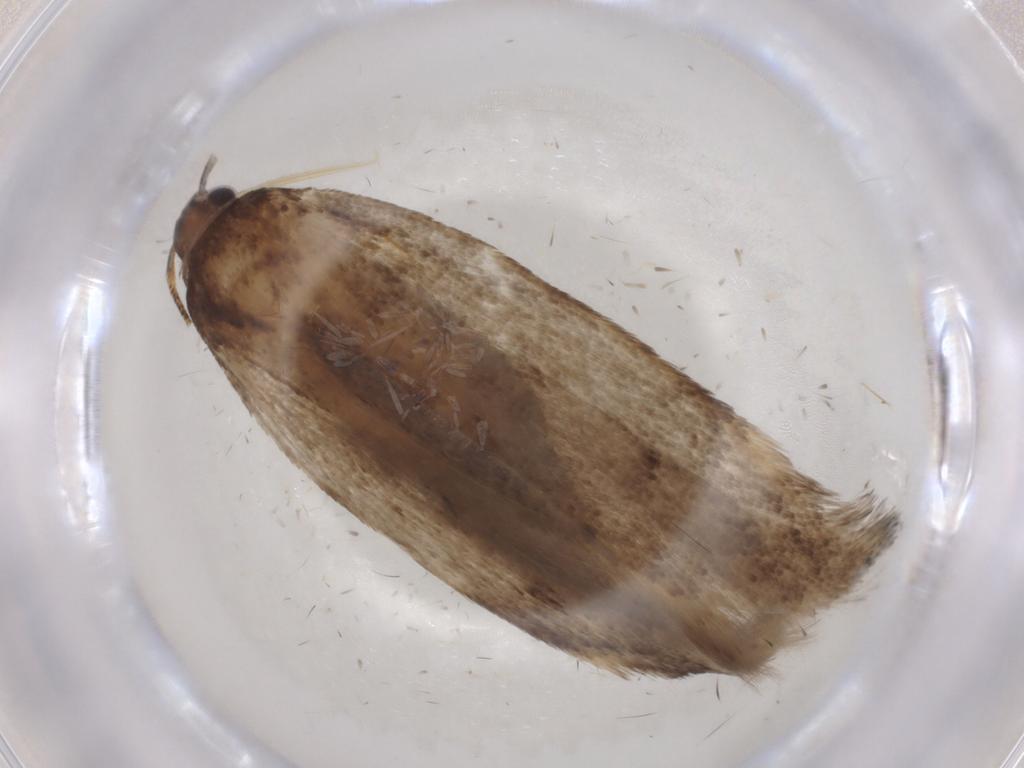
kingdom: Animalia
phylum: Arthropoda
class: Insecta
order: Lepidoptera
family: Gelechiidae
